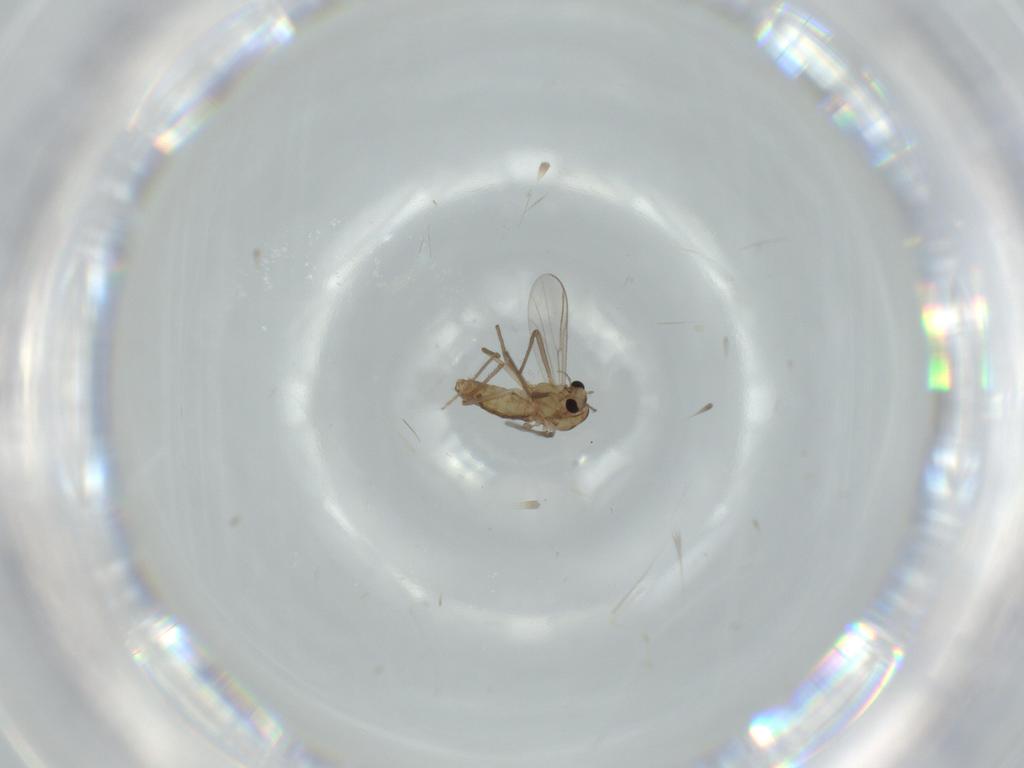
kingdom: Animalia
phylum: Arthropoda
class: Insecta
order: Diptera
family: Chironomidae
